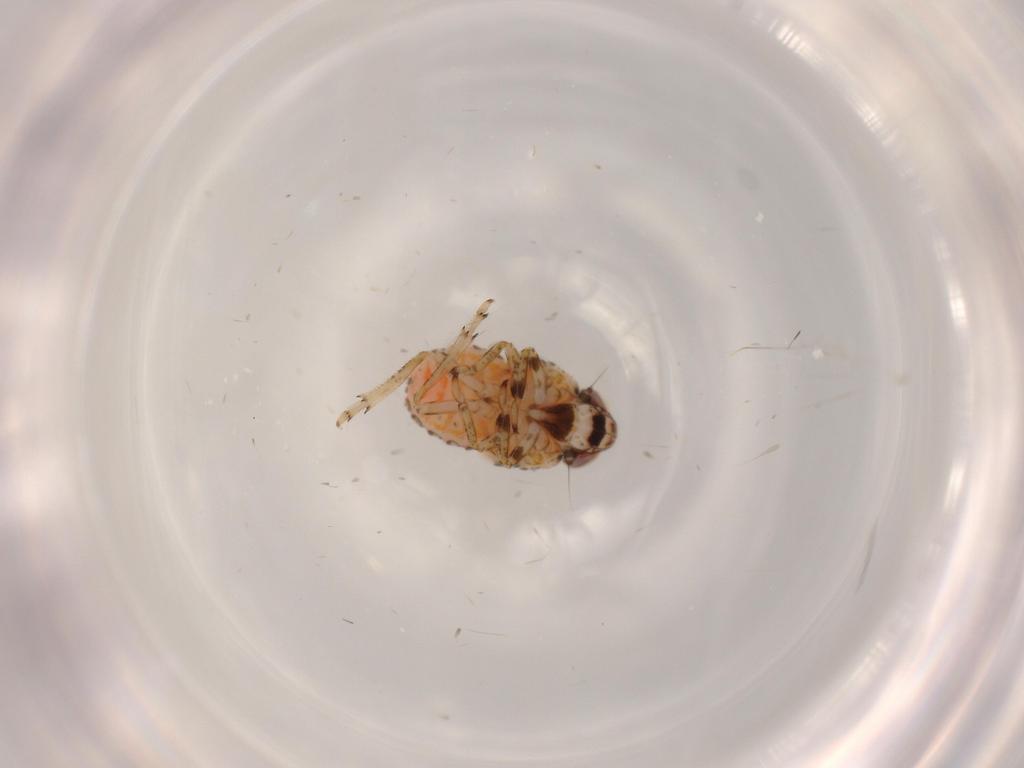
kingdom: Animalia
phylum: Arthropoda
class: Insecta
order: Hemiptera
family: Issidae
